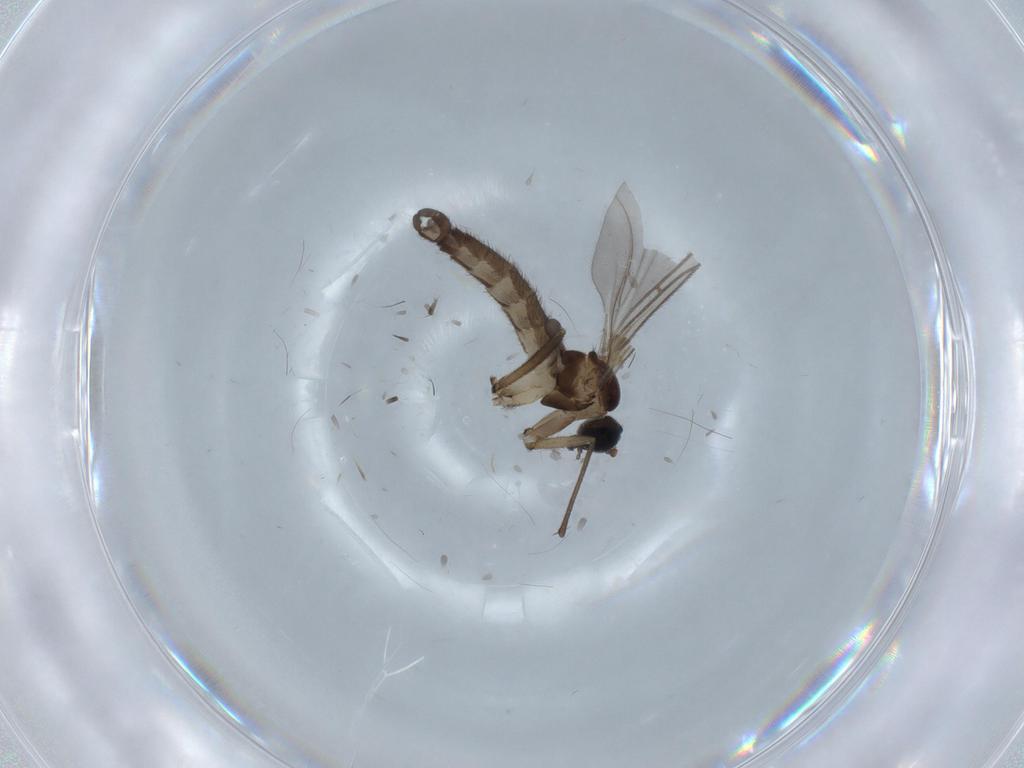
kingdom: Animalia
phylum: Arthropoda
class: Insecta
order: Diptera
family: Sciaridae
